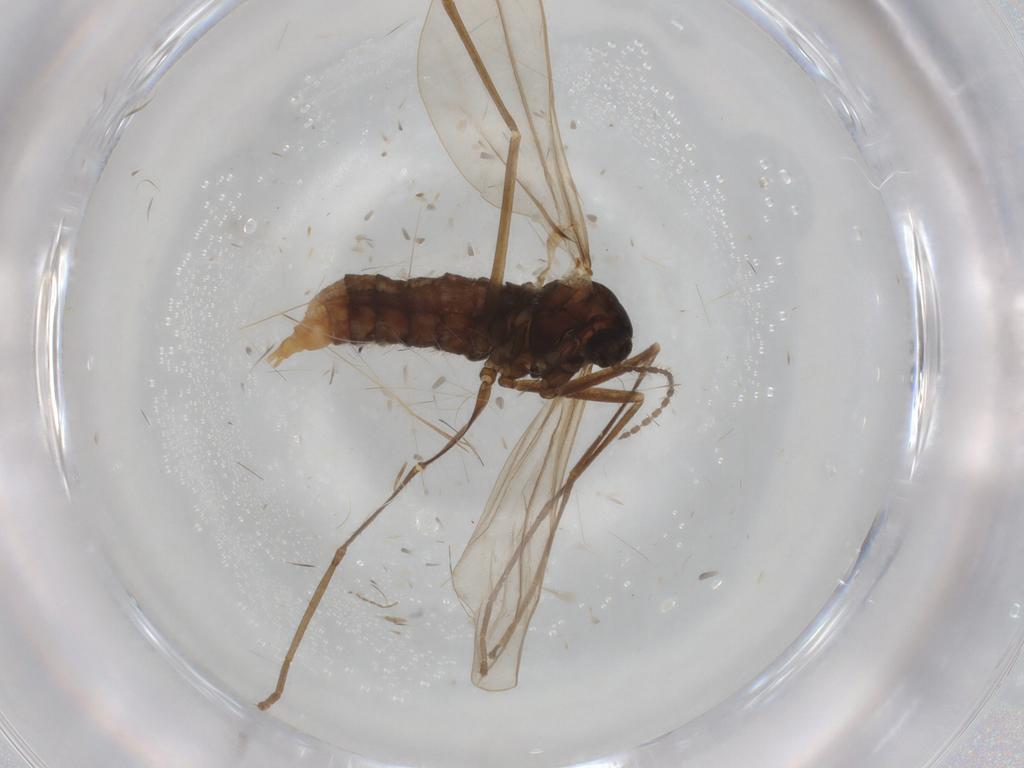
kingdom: Animalia
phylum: Arthropoda
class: Insecta
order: Diptera
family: Cecidomyiidae
